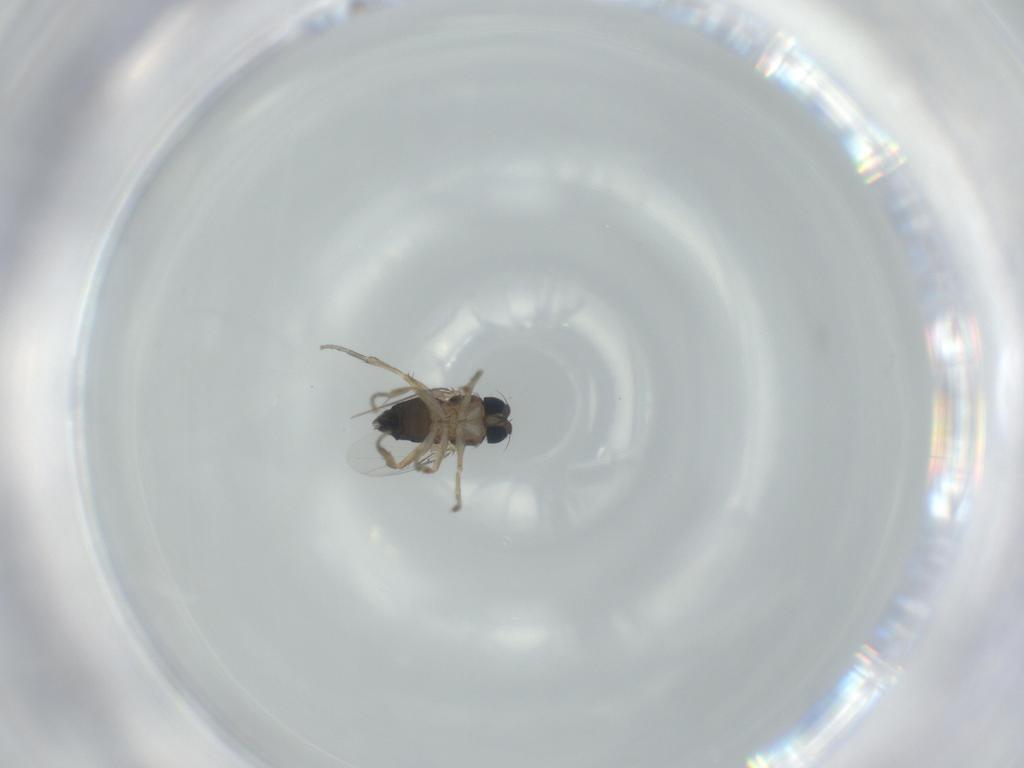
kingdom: Animalia
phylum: Arthropoda
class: Insecta
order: Diptera
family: Phoridae
